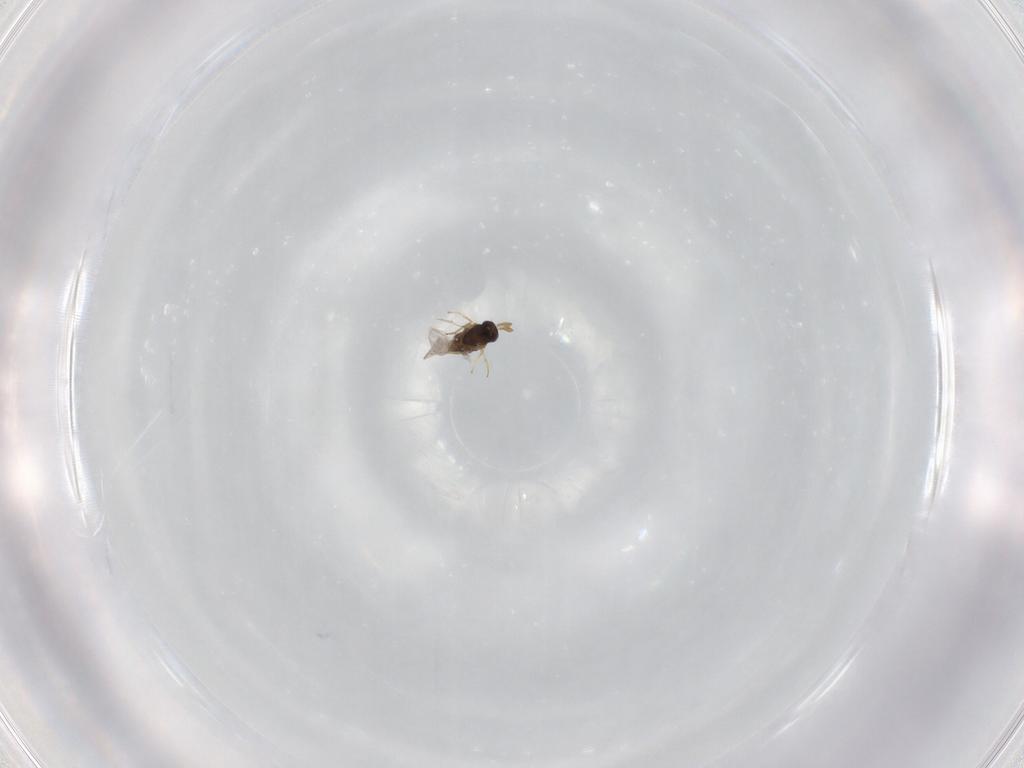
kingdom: Animalia
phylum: Arthropoda
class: Insecta
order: Hymenoptera
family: Encyrtidae
